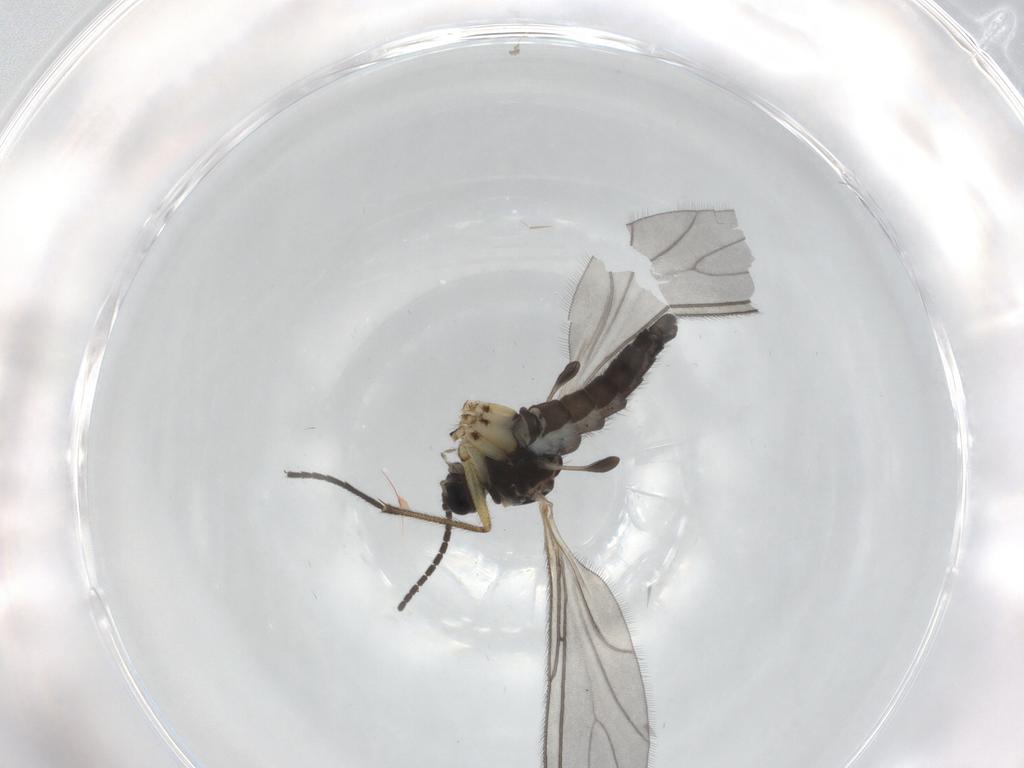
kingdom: Animalia
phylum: Arthropoda
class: Insecta
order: Diptera
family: Sciaridae
